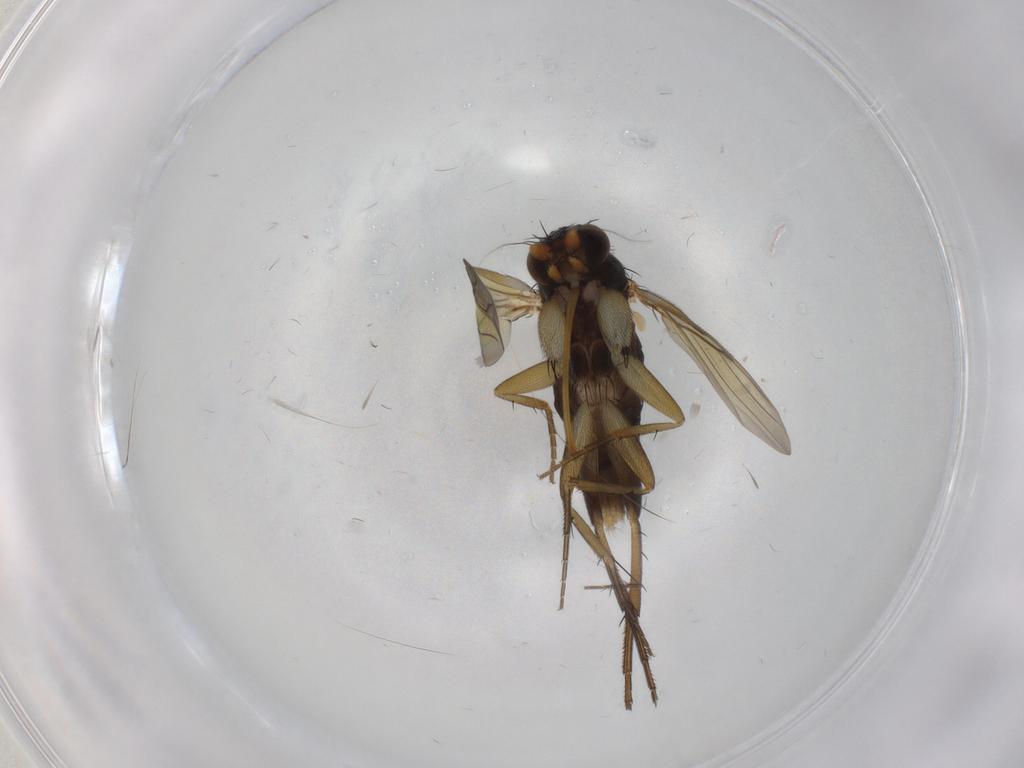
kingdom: Animalia
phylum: Arthropoda
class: Insecta
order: Diptera
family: Phoridae
